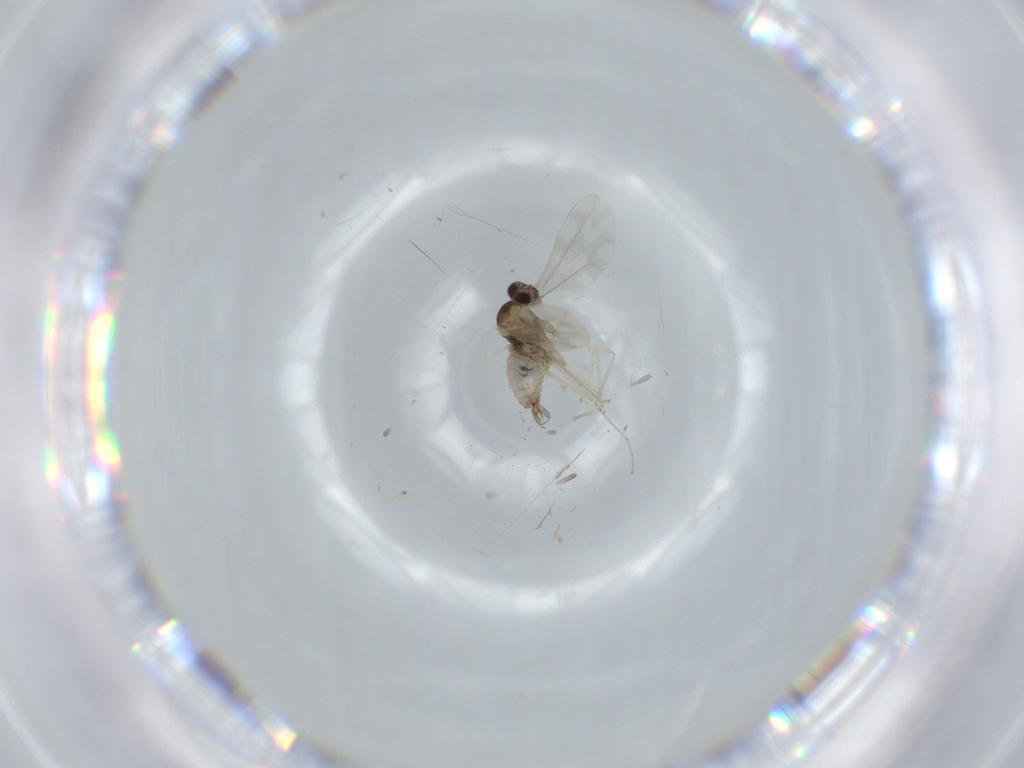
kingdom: Animalia
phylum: Arthropoda
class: Insecta
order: Diptera
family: Cecidomyiidae
